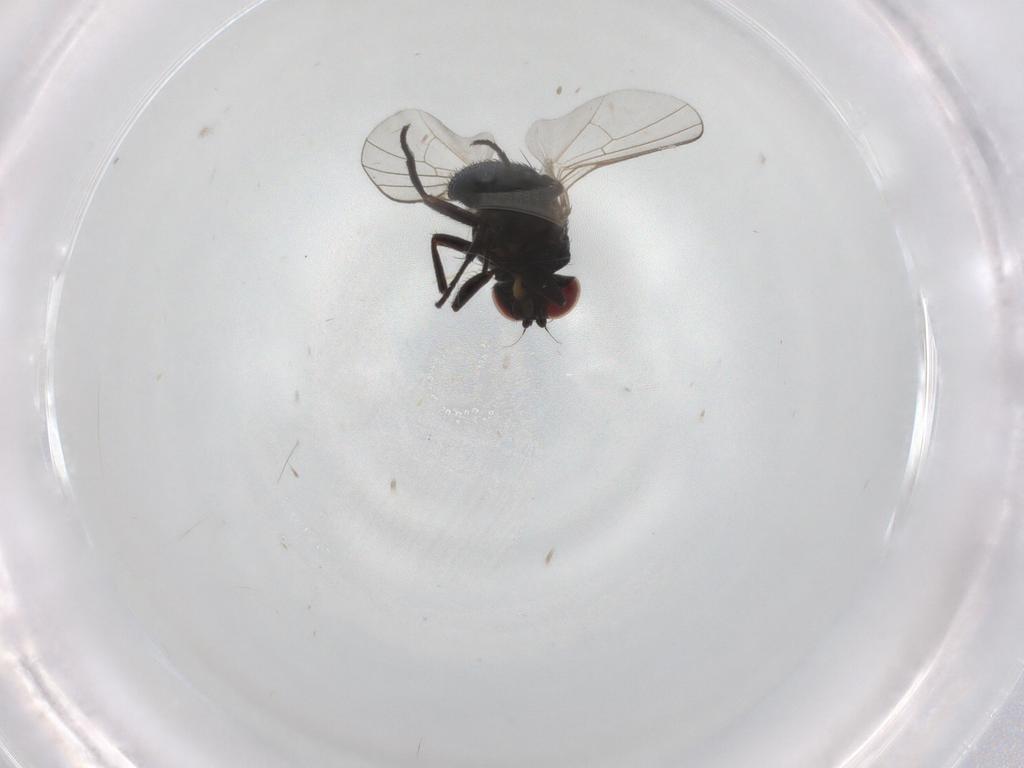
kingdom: Animalia
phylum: Arthropoda
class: Insecta
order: Diptera
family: Agromyzidae
